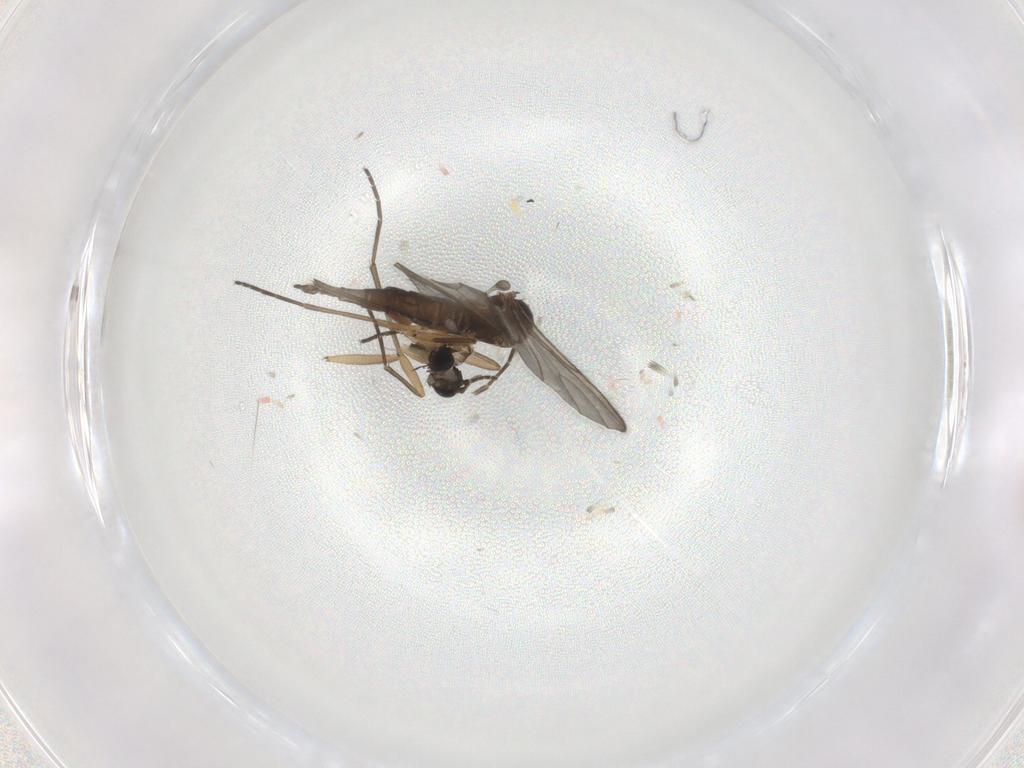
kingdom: Animalia
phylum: Arthropoda
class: Insecta
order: Diptera
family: Sciaridae
